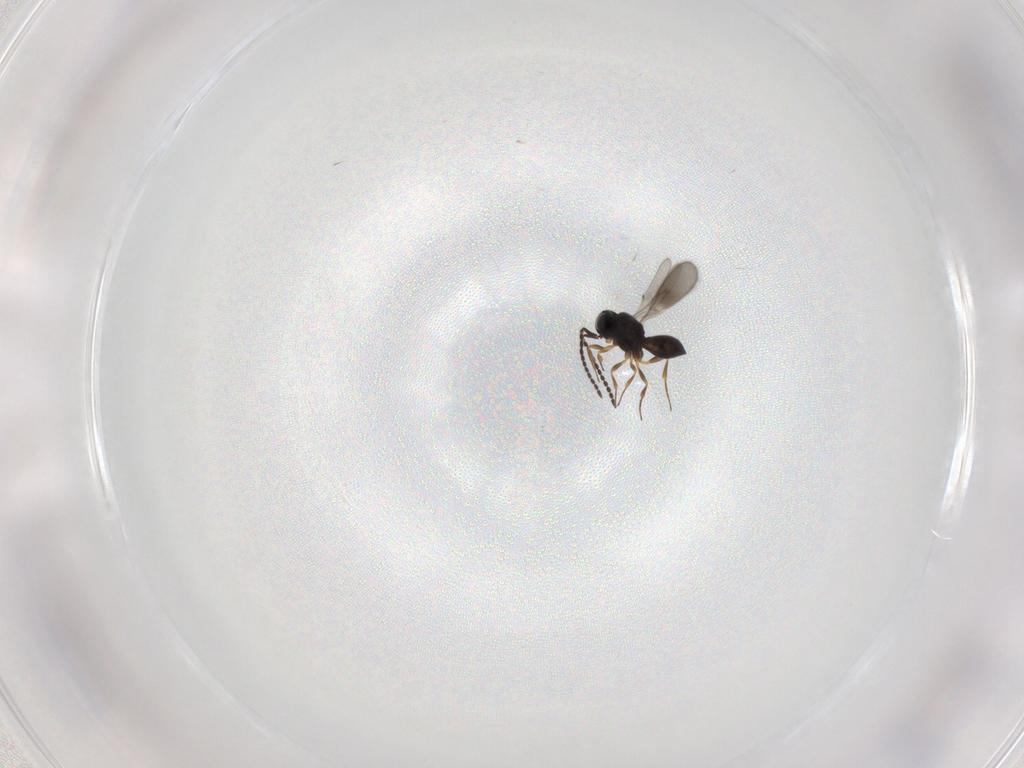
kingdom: Animalia
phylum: Arthropoda
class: Insecta
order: Hymenoptera
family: Scelionidae
